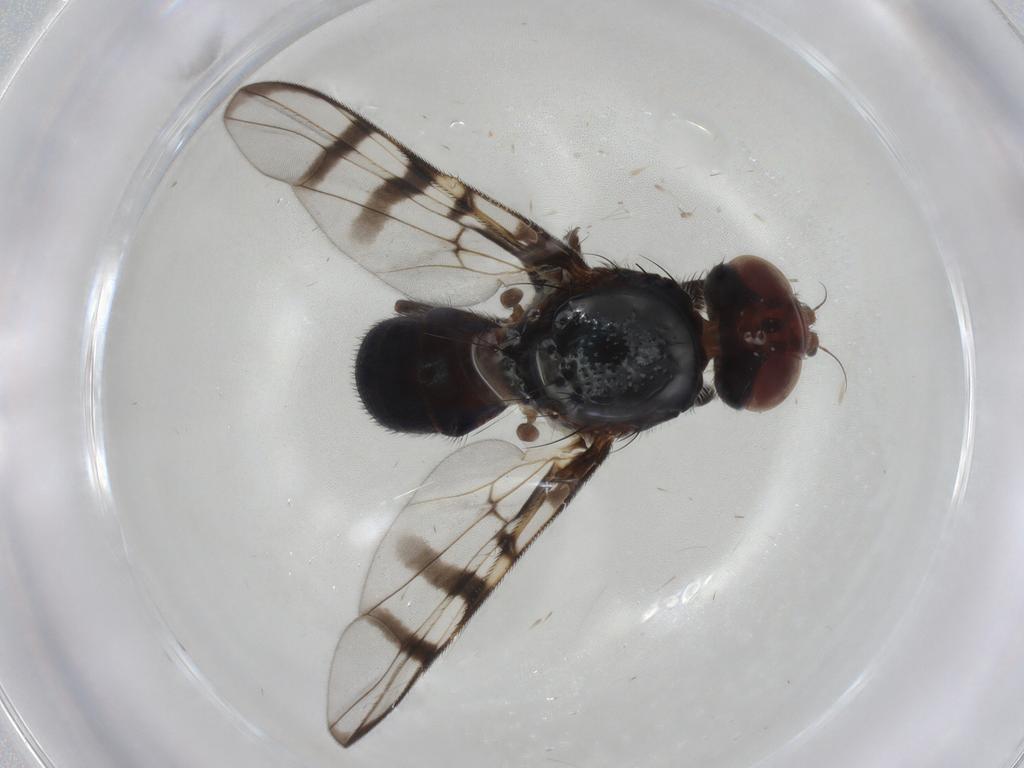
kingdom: Animalia
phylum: Arthropoda
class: Insecta
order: Diptera
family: Platystomatidae
